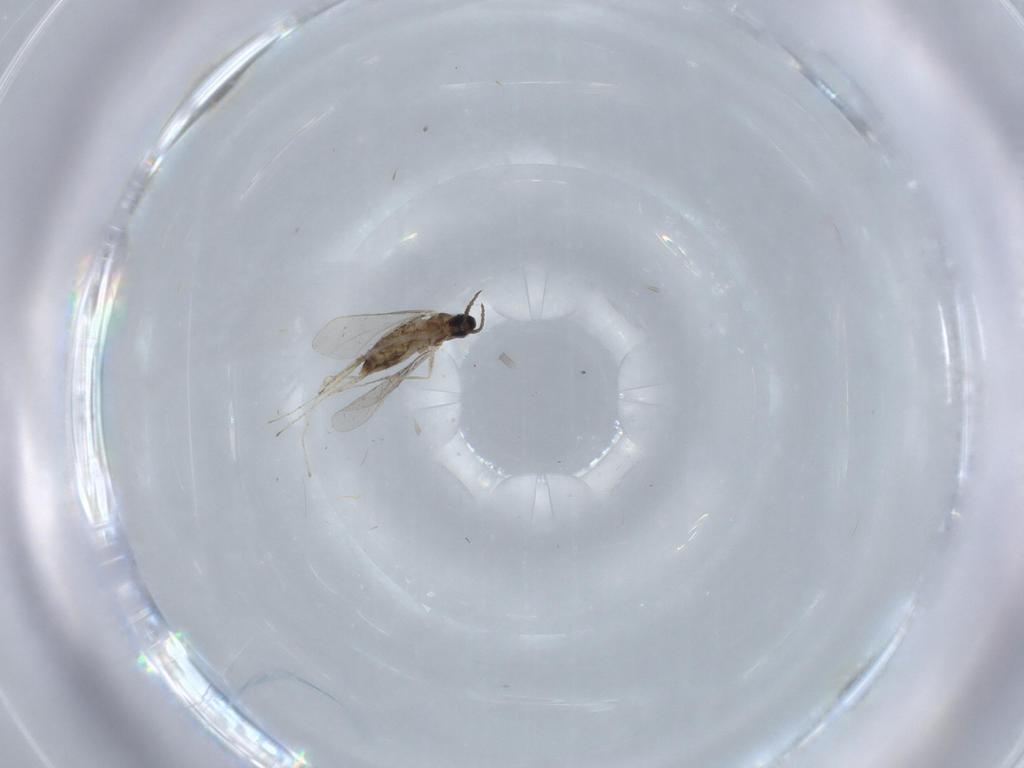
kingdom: Animalia
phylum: Arthropoda
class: Insecta
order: Diptera
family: Cecidomyiidae
